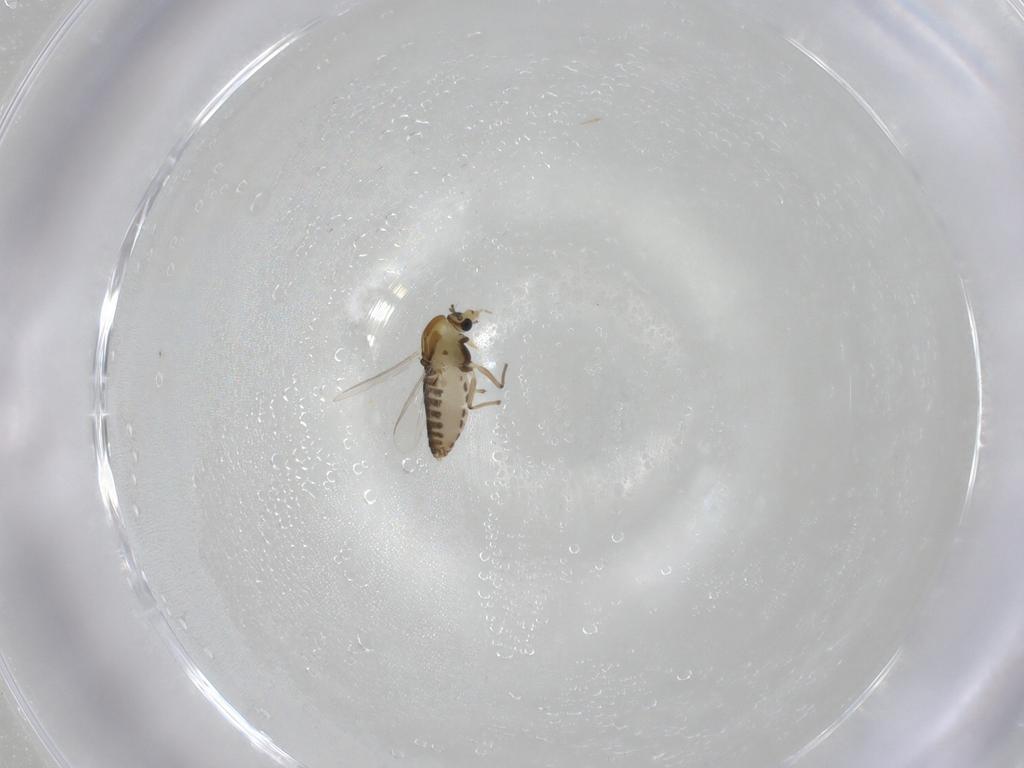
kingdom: Animalia
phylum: Arthropoda
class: Insecta
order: Diptera
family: Chironomidae
